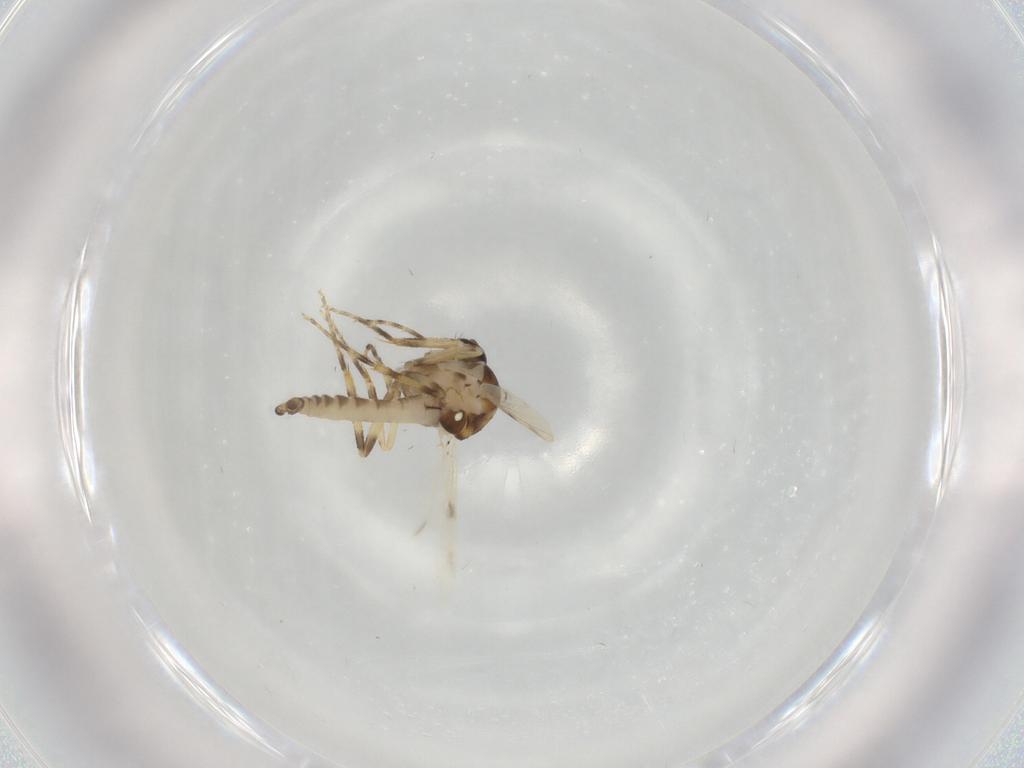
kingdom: Animalia
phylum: Arthropoda
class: Insecta
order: Diptera
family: Ceratopogonidae
